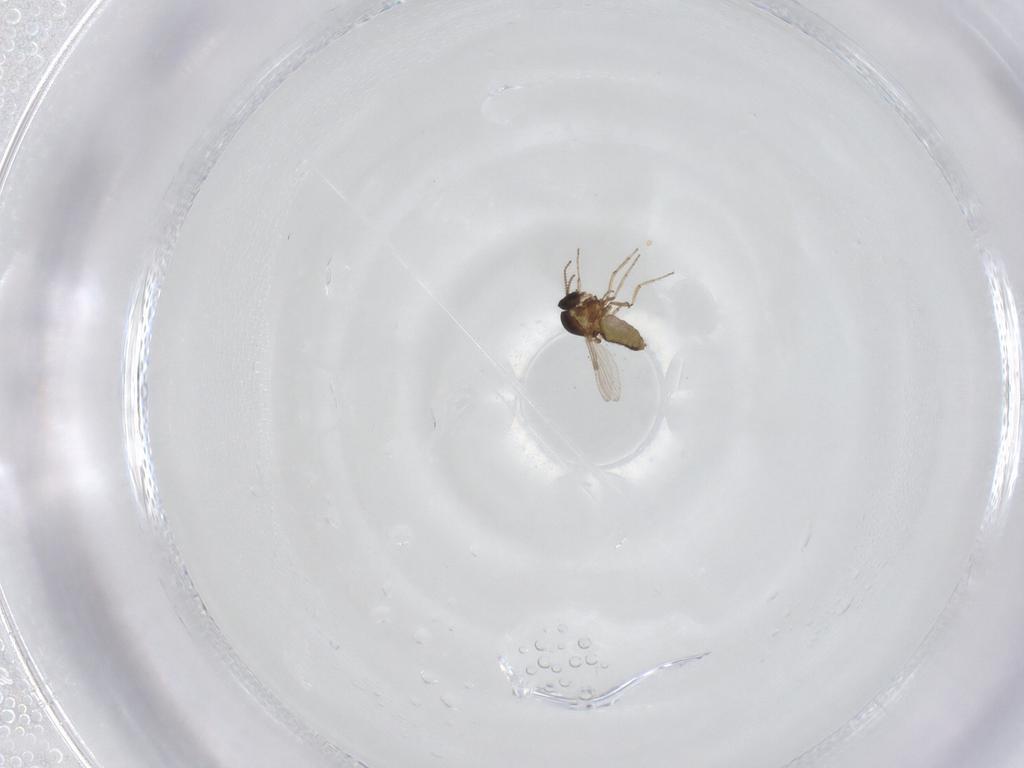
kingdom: Animalia
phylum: Arthropoda
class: Insecta
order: Diptera
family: Ceratopogonidae
